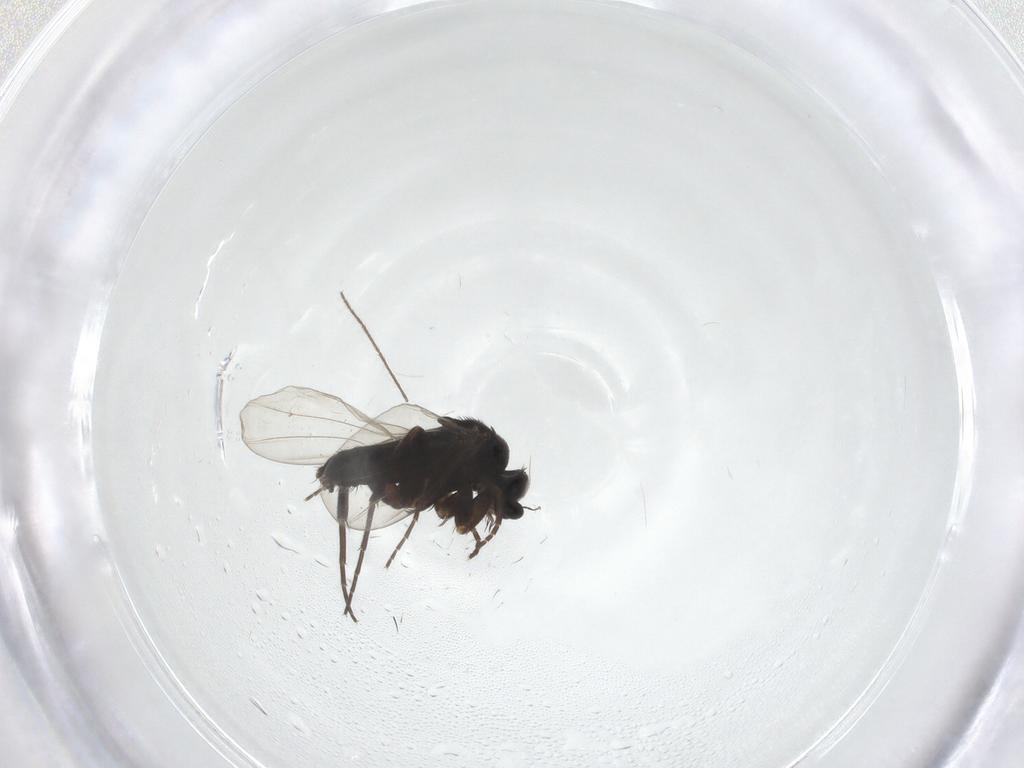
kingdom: Animalia
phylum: Arthropoda
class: Insecta
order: Diptera
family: Phoridae
